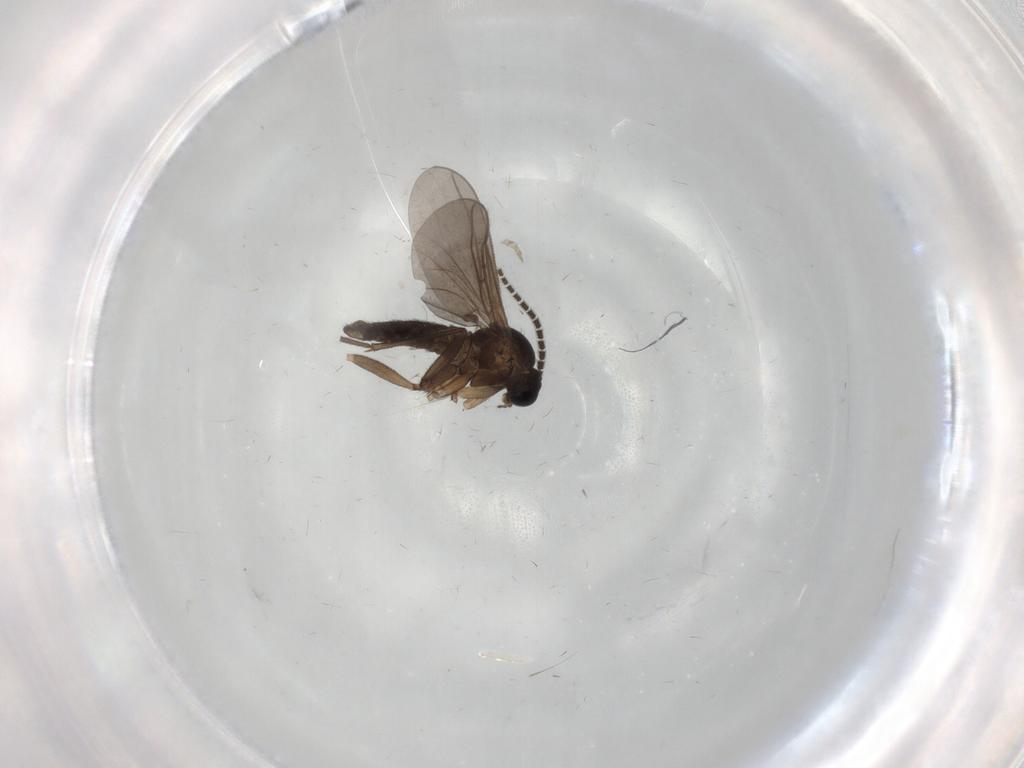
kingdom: Animalia
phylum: Arthropoda
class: Insecta
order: Diptera
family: Sciaridae
